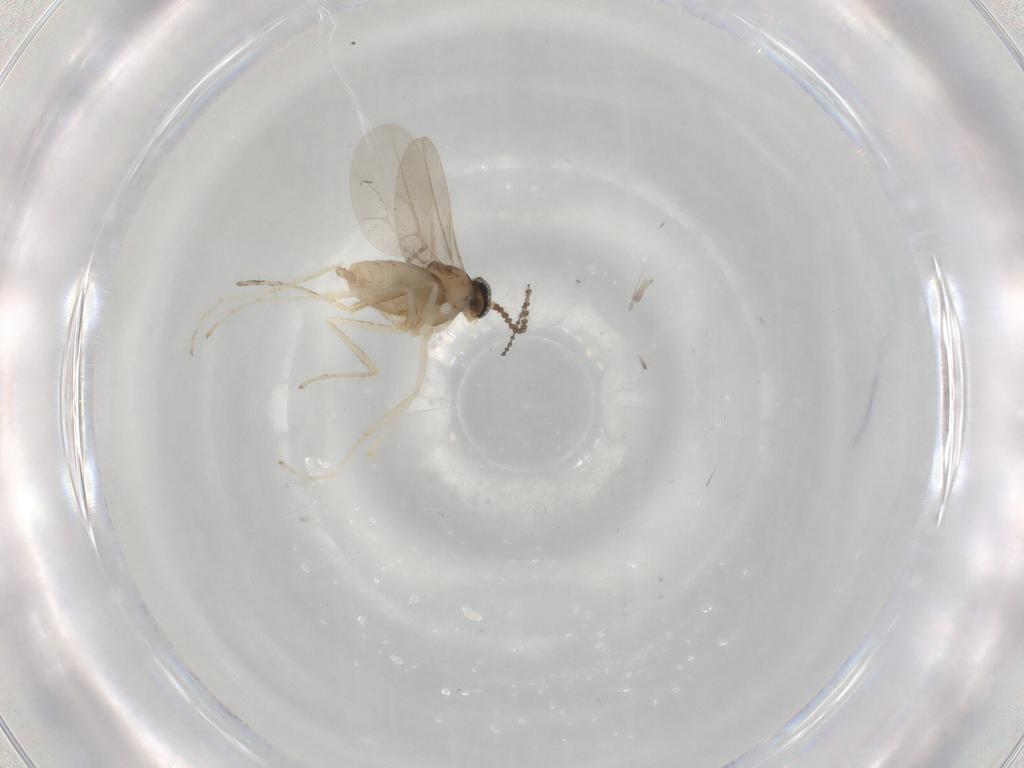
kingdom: Animalia
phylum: Arthropoda
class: Insecta
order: Diptera
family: Cecidomyiidae
